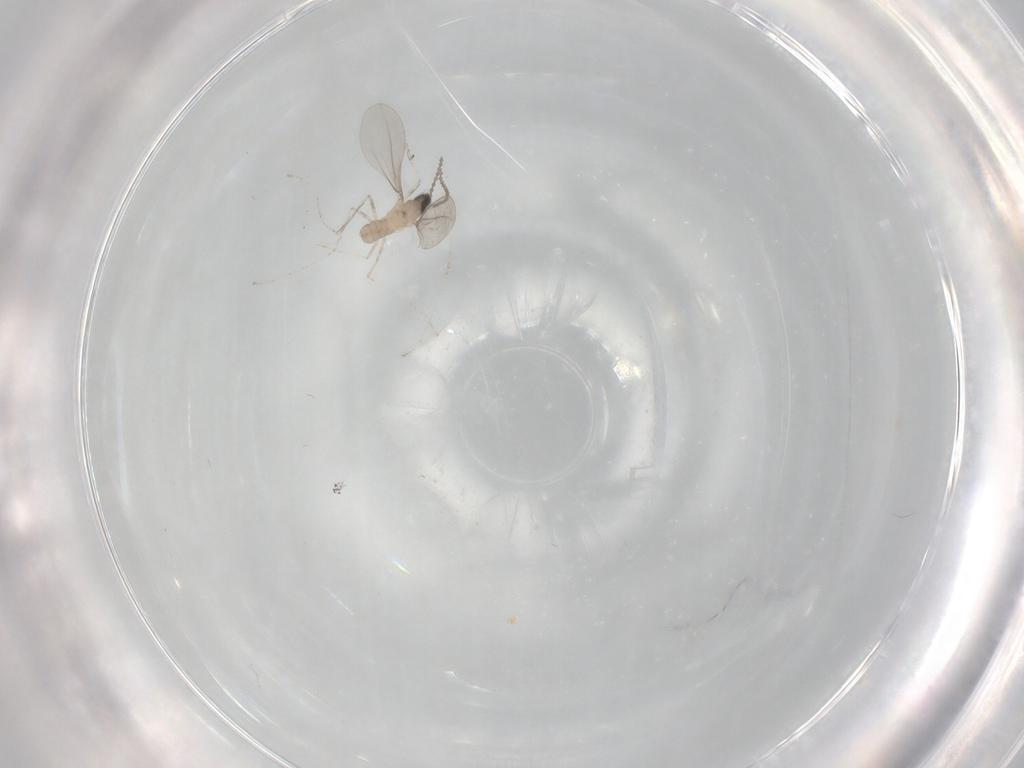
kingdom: Animalia
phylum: Arthropoda
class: Insecta
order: Diptera
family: Cecidomyiidae
